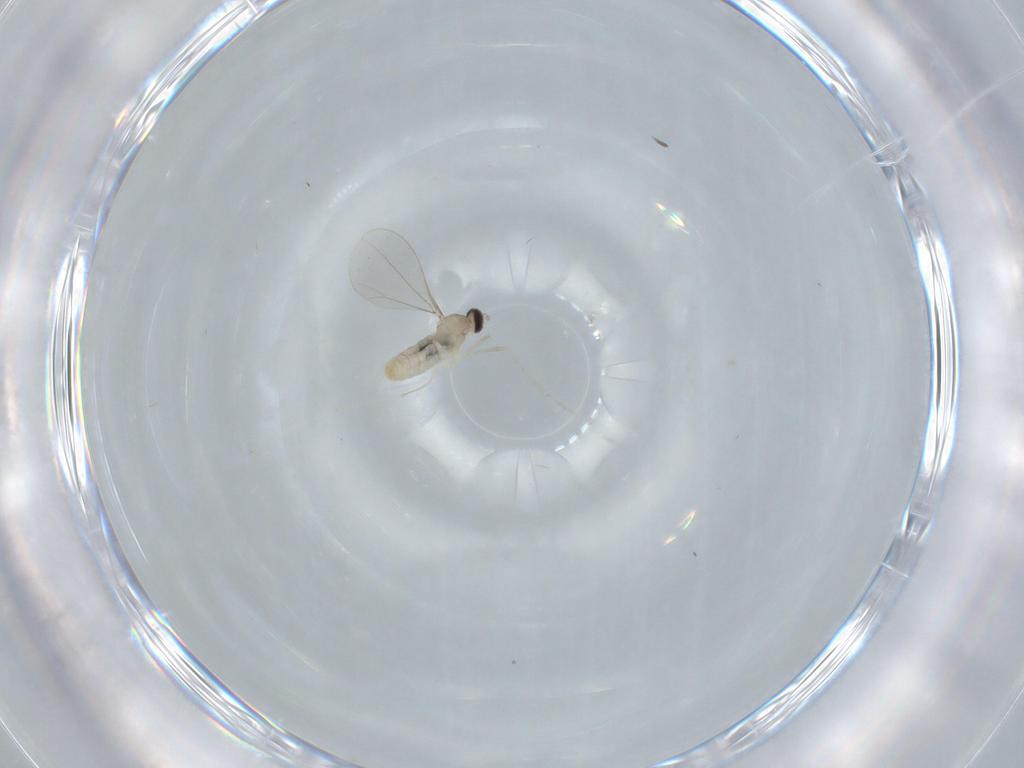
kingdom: Animalia
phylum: Arthropoda
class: Insecta
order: Diptera
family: Cecidomyiidae
